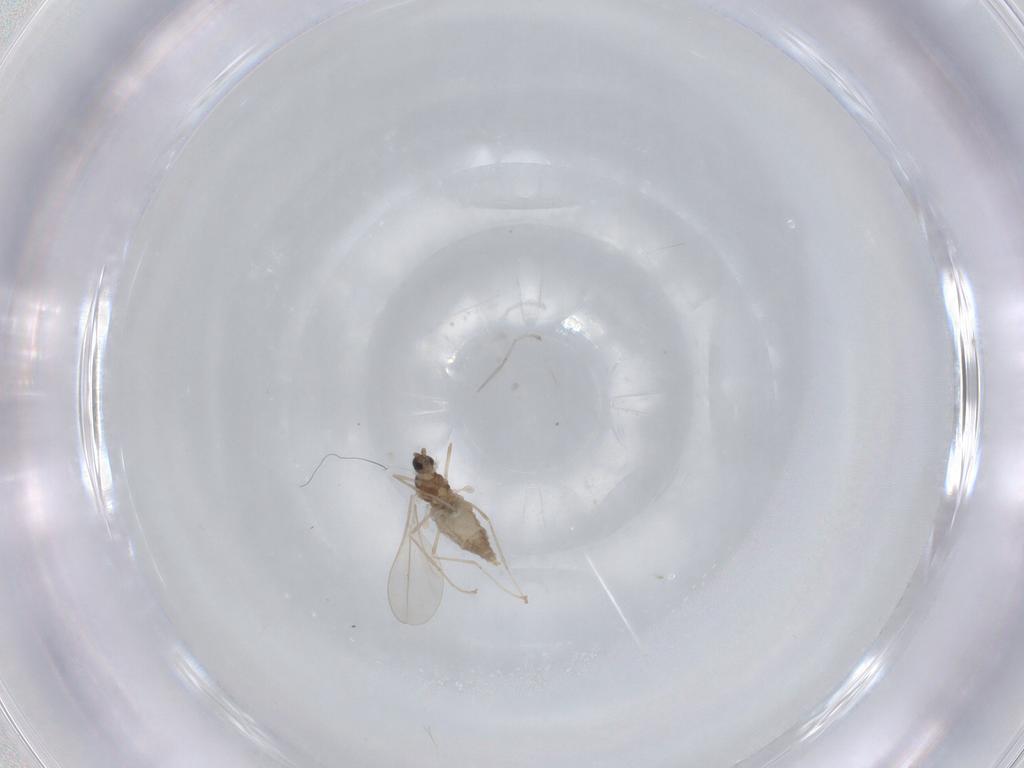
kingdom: Animalia
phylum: Arthropoda
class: Insecta
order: Diptera
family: Cecidomyiidae
